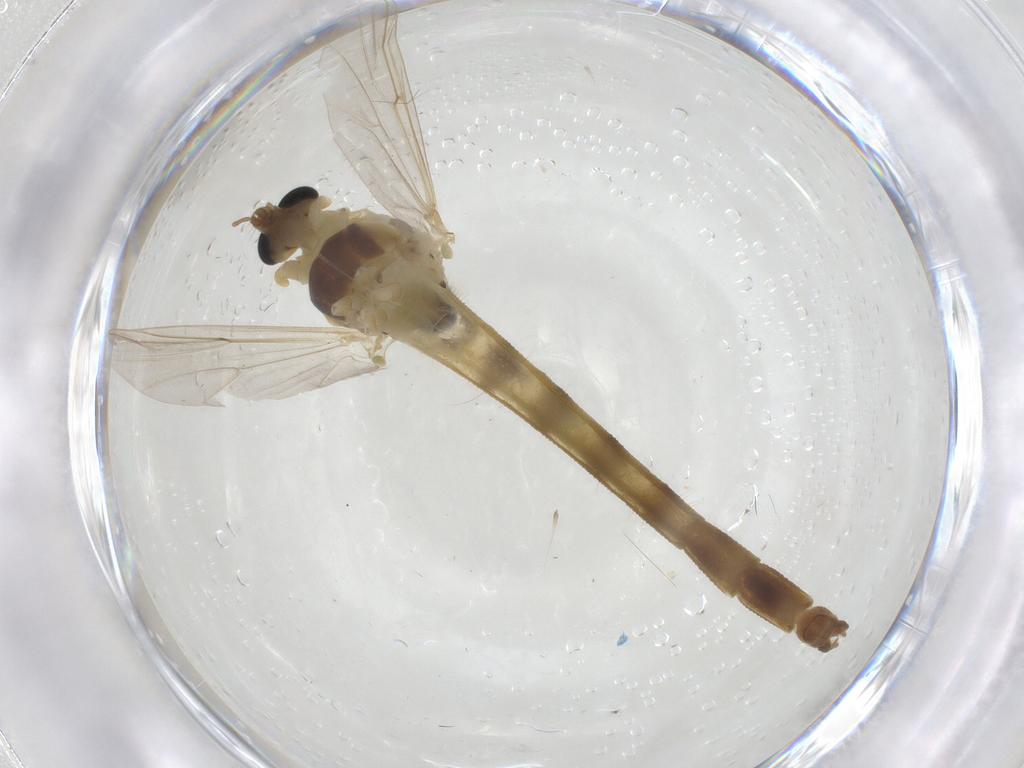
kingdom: Animalia
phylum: Arthropoda
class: Insecta
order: Diptera
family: Chironomidae
